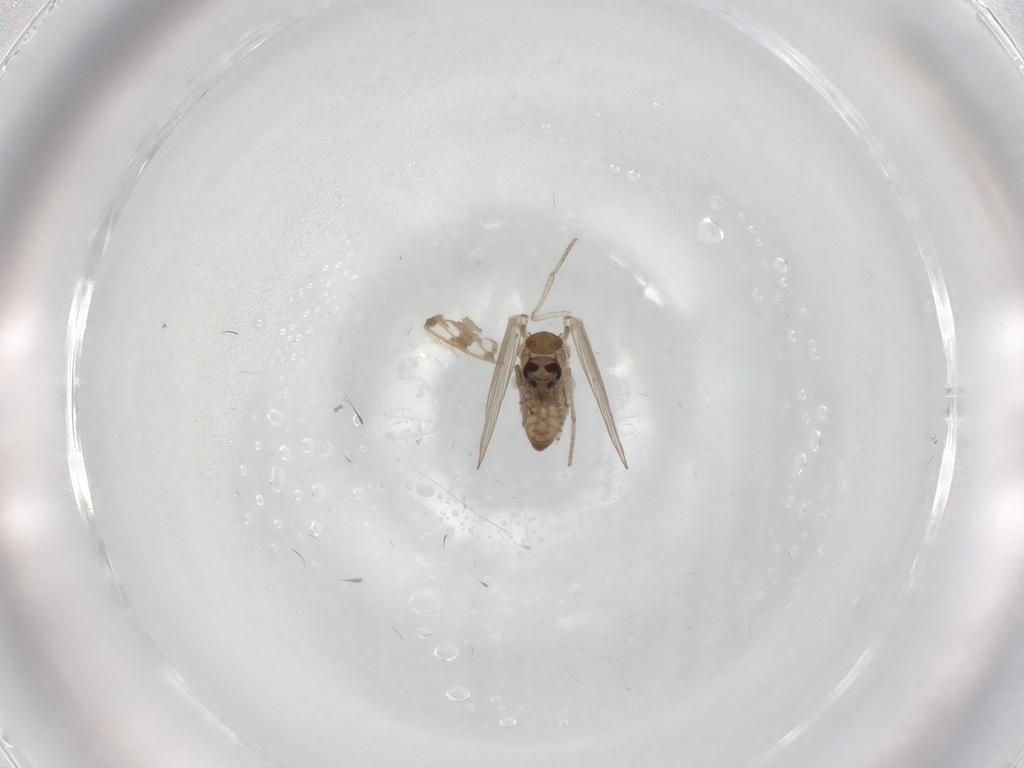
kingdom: Animalia
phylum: Arthropoda
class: Insecta
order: Diptera
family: Psychodidae
